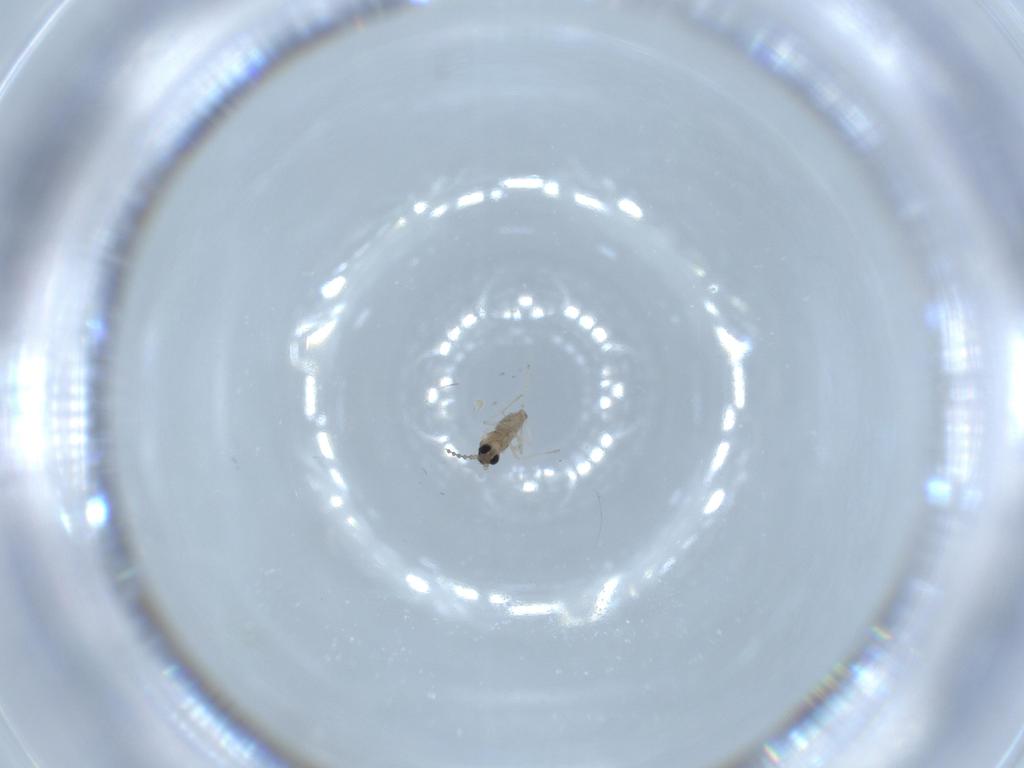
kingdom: Animalia
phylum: Arthropoda
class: Insecta
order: Diptera
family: Cecidomyiidae
